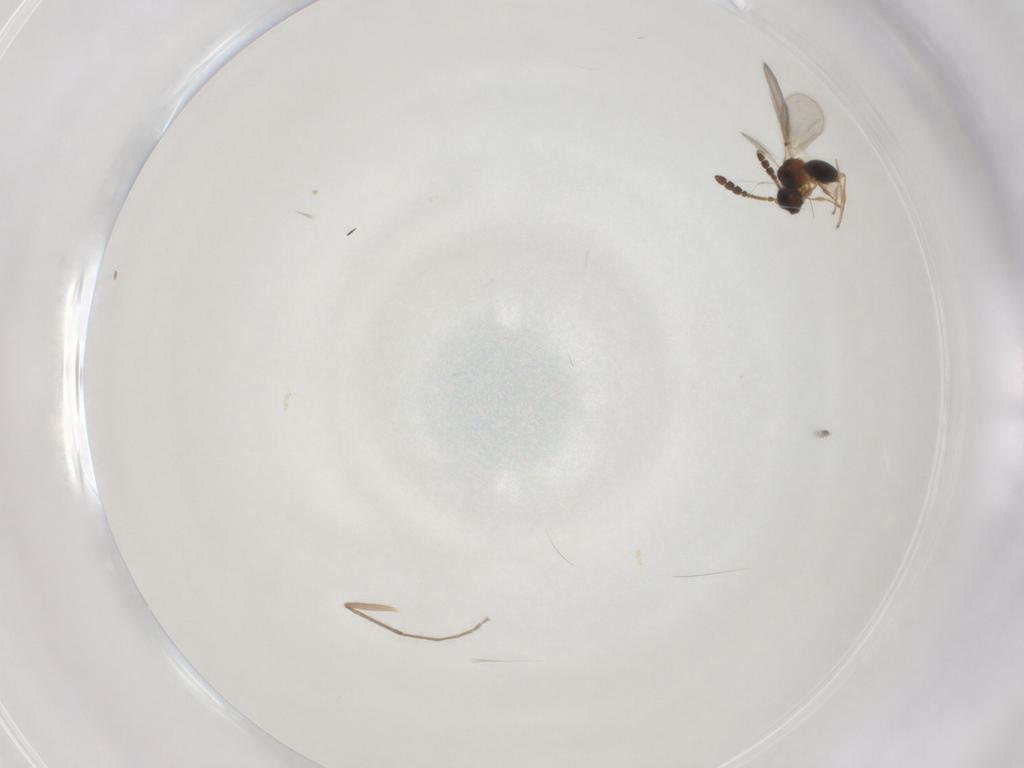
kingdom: Animalia
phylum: Arthropoda
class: Insecta
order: Hymenoptera
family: Diapriidae
